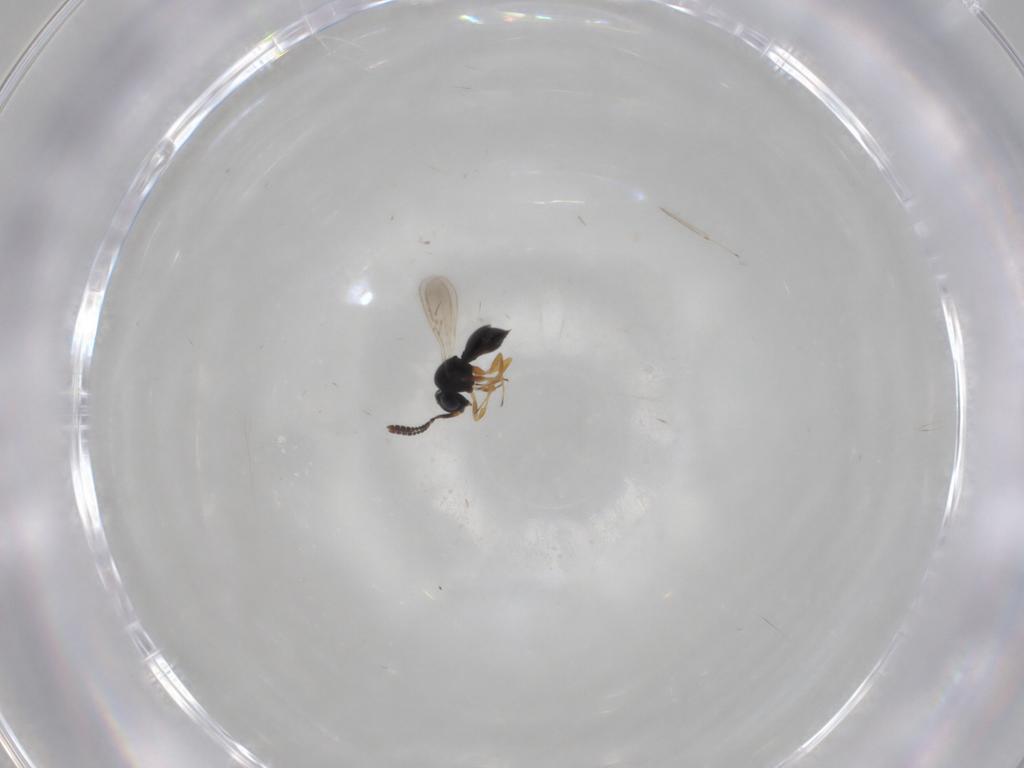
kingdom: Animalia
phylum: Arthropoda
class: Insecta
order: Hymenoptera
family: Scelionidae
